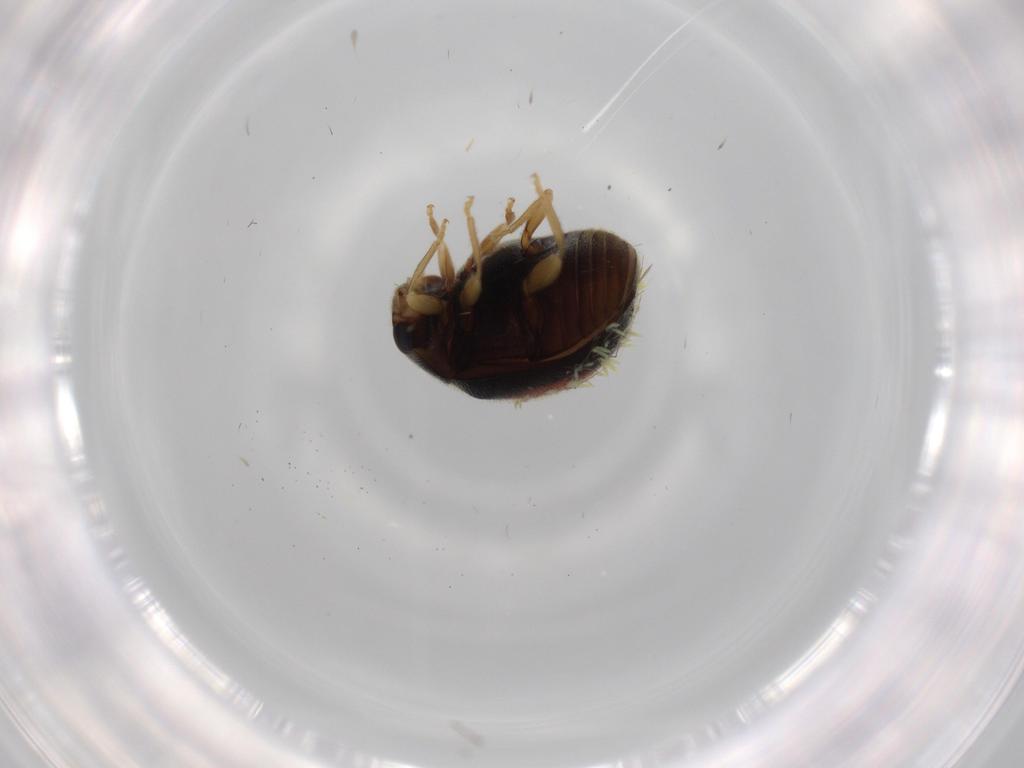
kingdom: Animalia
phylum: Arthropoda
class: Insecta
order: Coleoptera
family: Coccinellidae
